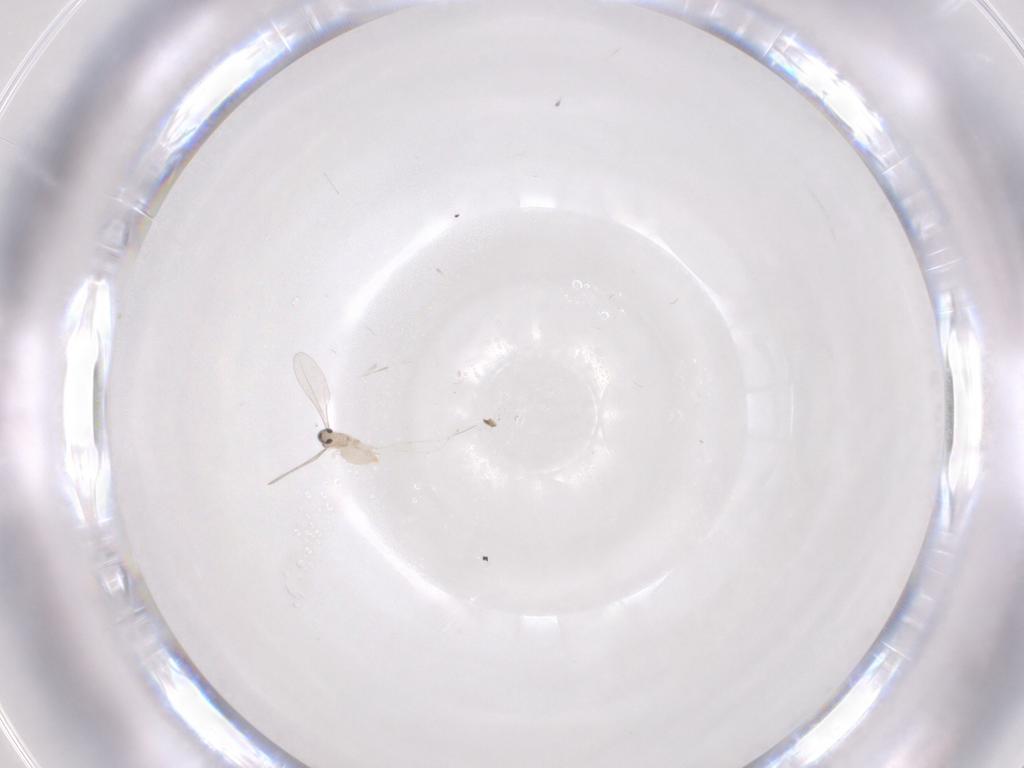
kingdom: Animalia
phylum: Arthropoda
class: Insecta
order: Diptera
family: Cecidomyiidae
